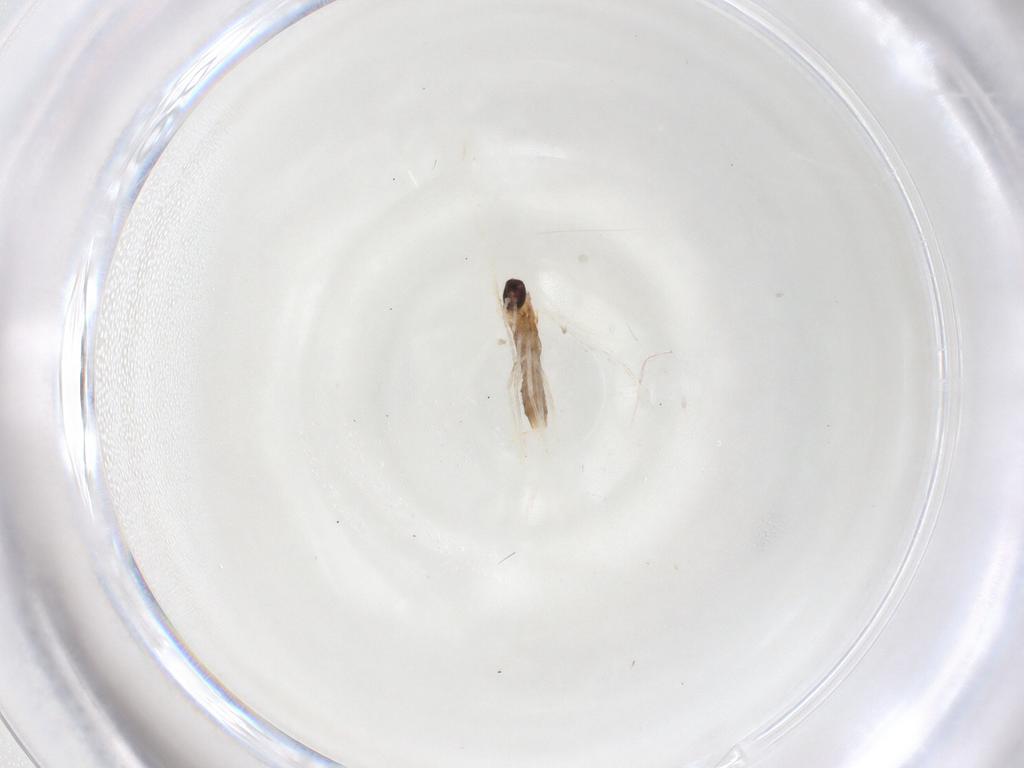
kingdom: Animalia
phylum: Arthropoda
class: Insecta
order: Diptera
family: Cecidomyiidae
